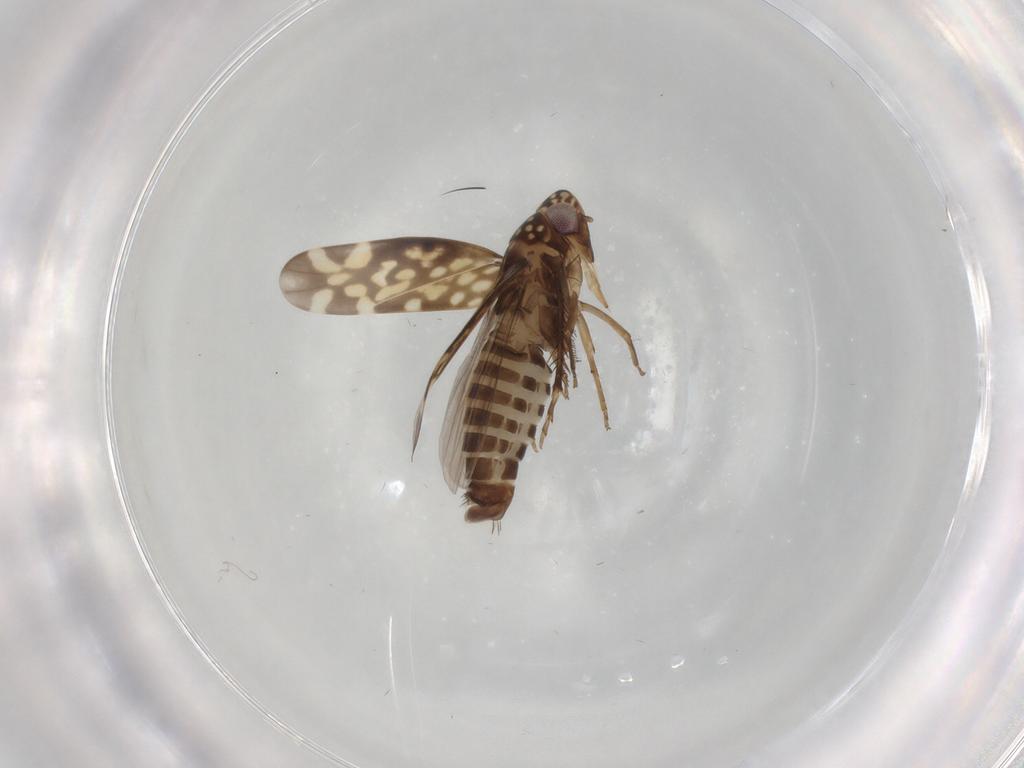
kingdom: Animalia
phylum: Arthropoda
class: Insecta
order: Hemiptera
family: Cicadellidae
